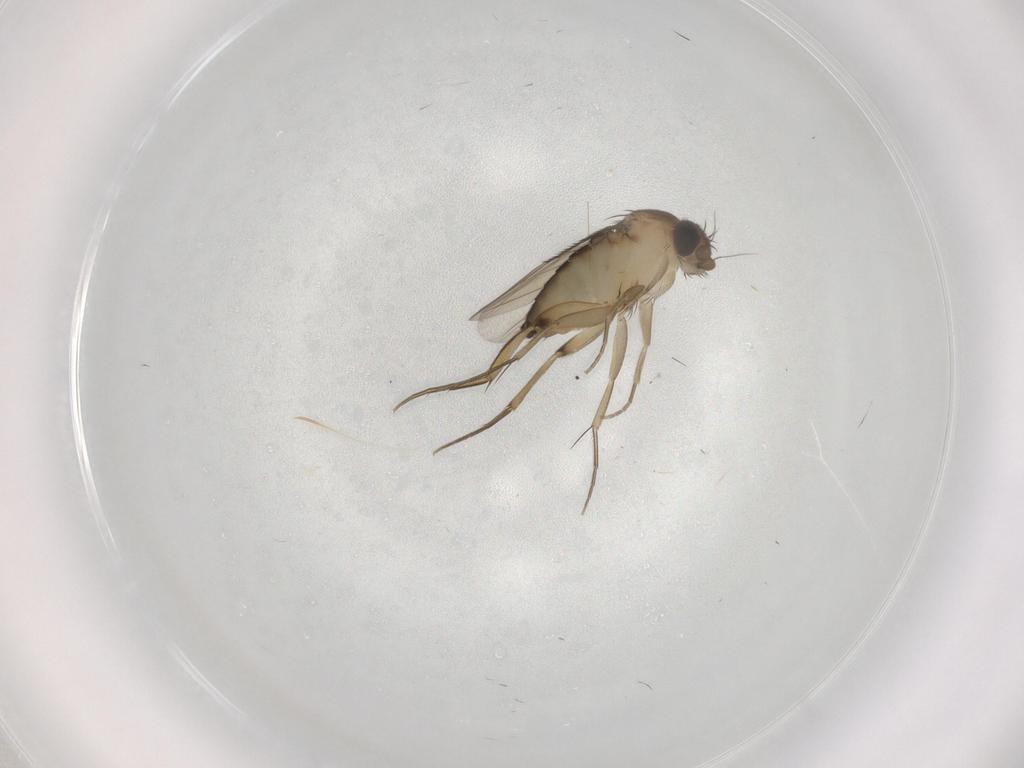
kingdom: Animalia
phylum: Arthropoda
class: Insecta
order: Diptera
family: Phoridae
